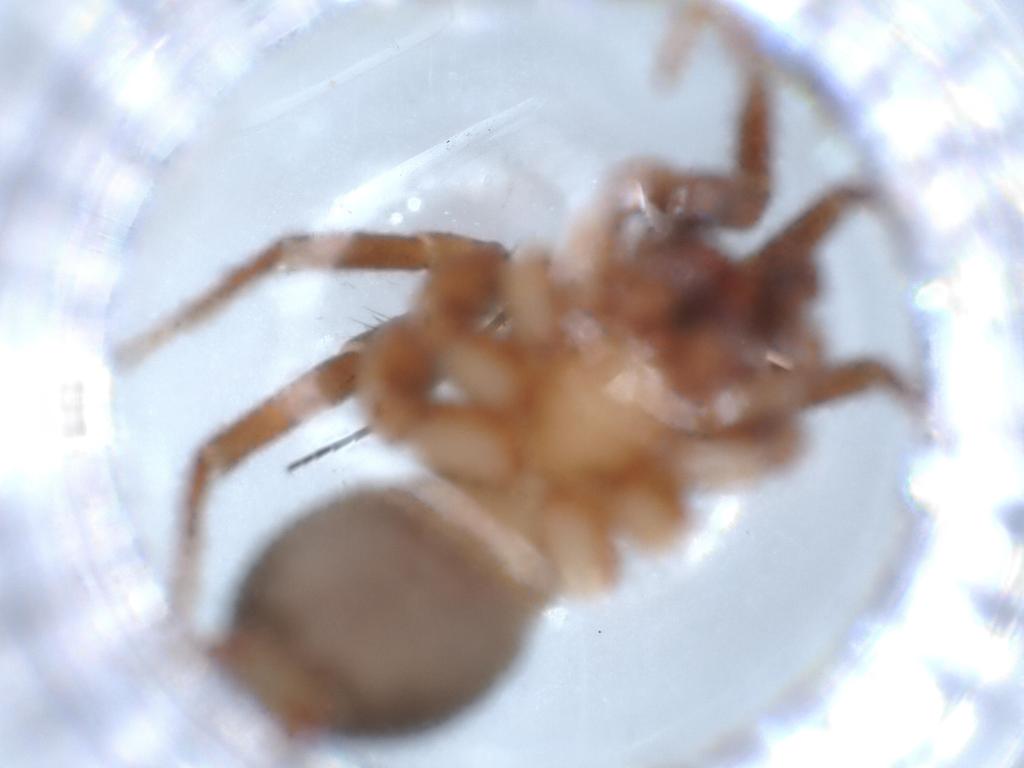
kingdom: Animalia
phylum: Arthropoda
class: Arachnida
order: Araneae
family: Gnaphosidae
